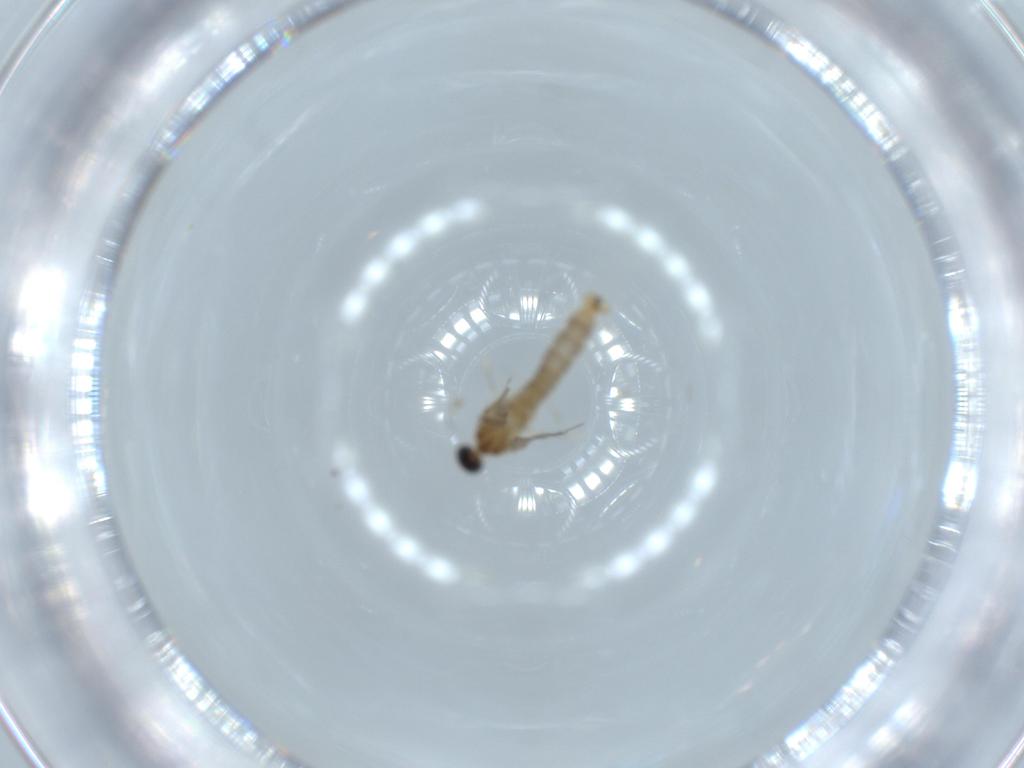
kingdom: Animalia
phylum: Arthropoda
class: Insecta
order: Diptera
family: Cecidomyiidae
